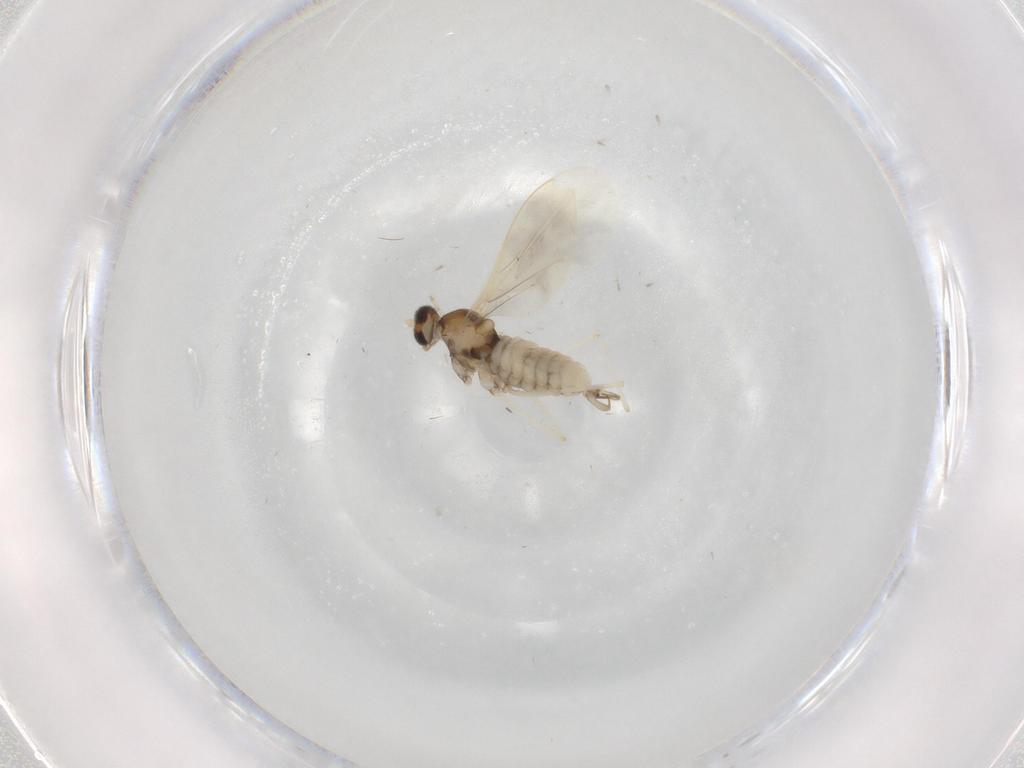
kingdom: Animalia
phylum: Arthropoda
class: Insecta
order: Diptera
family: Cecidomyiidae
